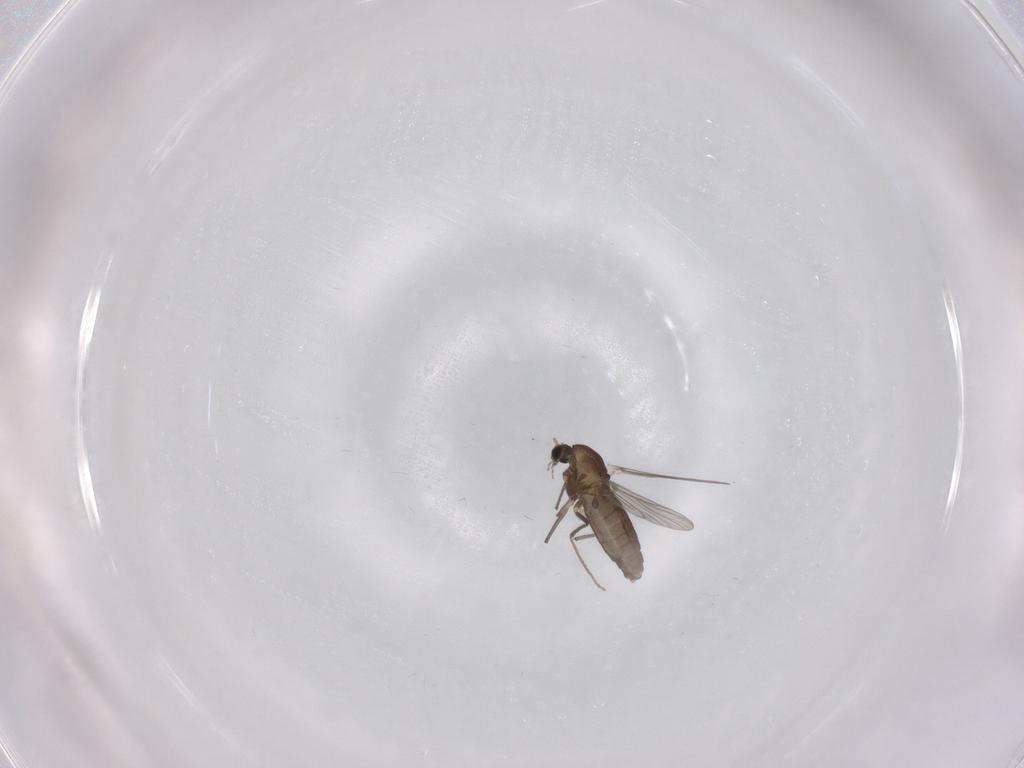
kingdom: Animalia
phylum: Arthropoda
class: Insecta
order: Diptera
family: Chironomidae
